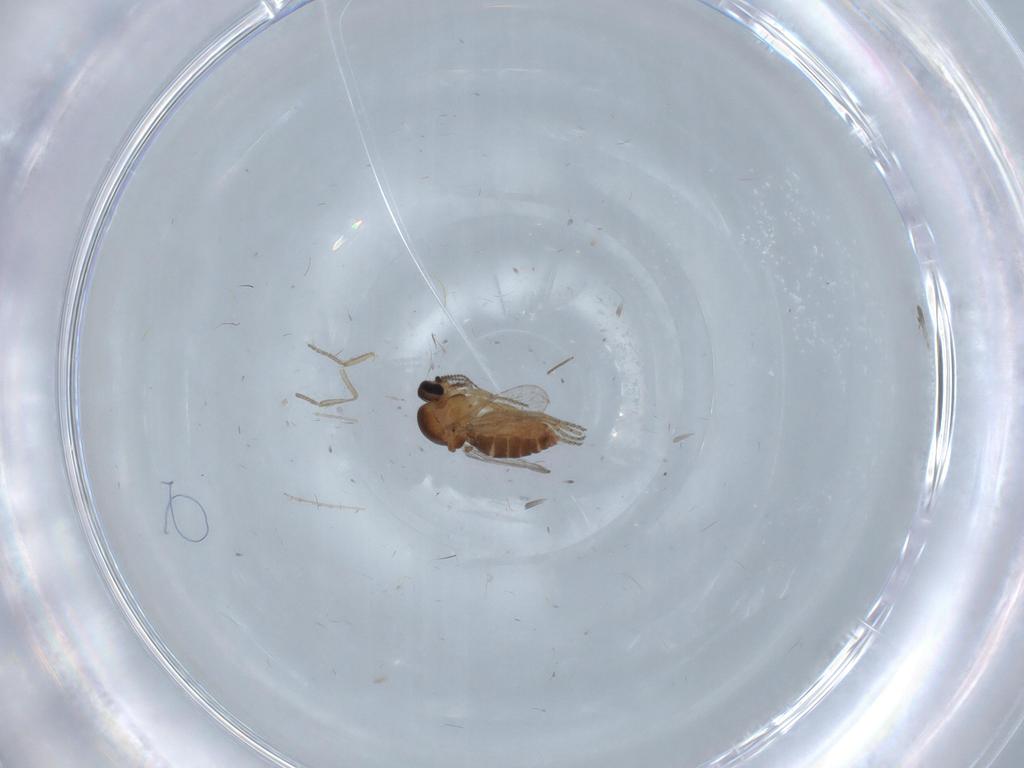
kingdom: Animalia
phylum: Arthropoda
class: Insecta
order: Diptera
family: Ceratopogonidae
